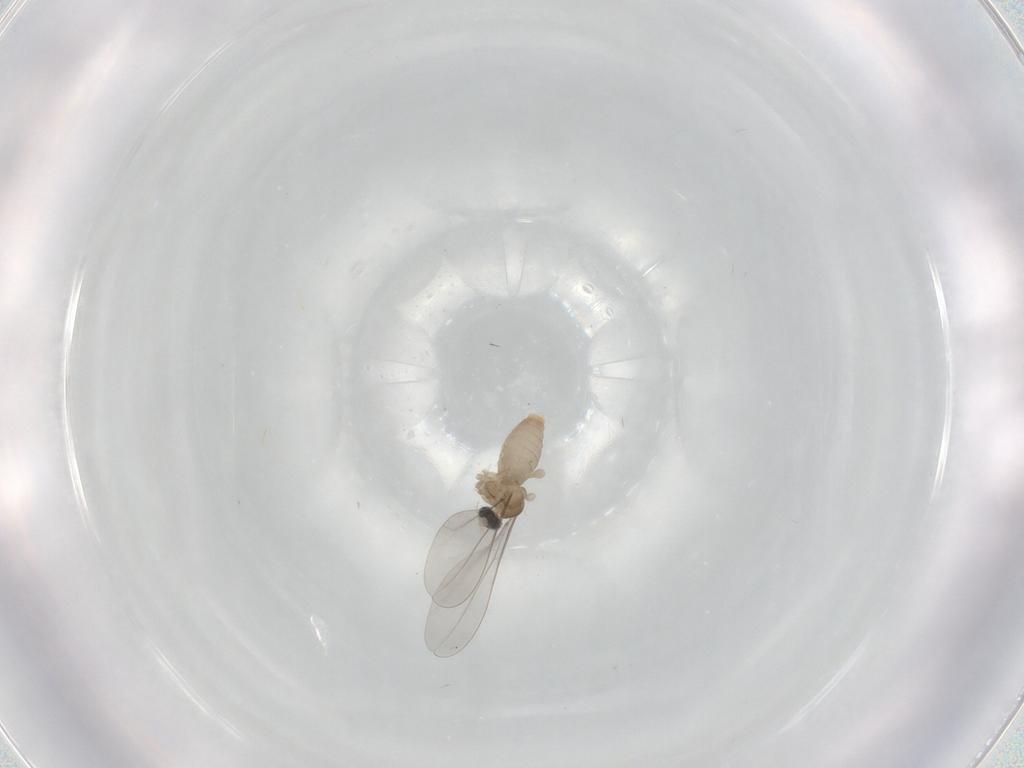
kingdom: Animalia
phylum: Arthropoda
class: Insecta
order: Diptera
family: Cecidomyiidae
